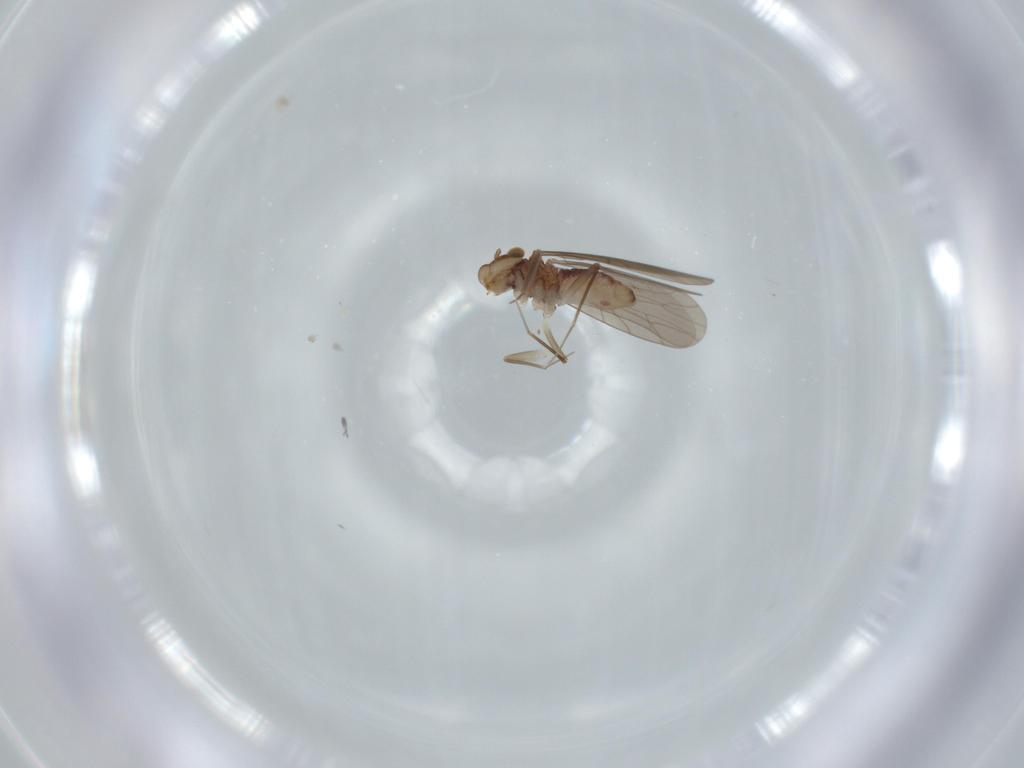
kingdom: Animalia
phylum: Arthropoda
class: Insecta
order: Psocodea
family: Lepidopsocidae
